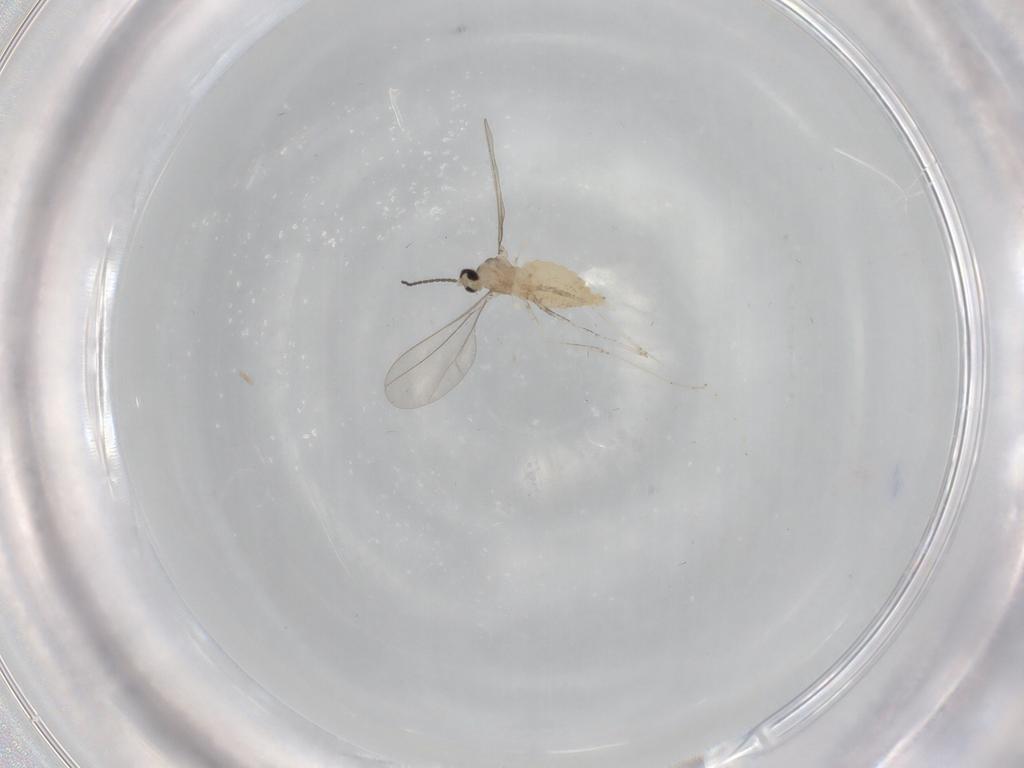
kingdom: Animalia
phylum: Arthropoda
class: Insecta
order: Diptera
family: Cecidomyiidae
